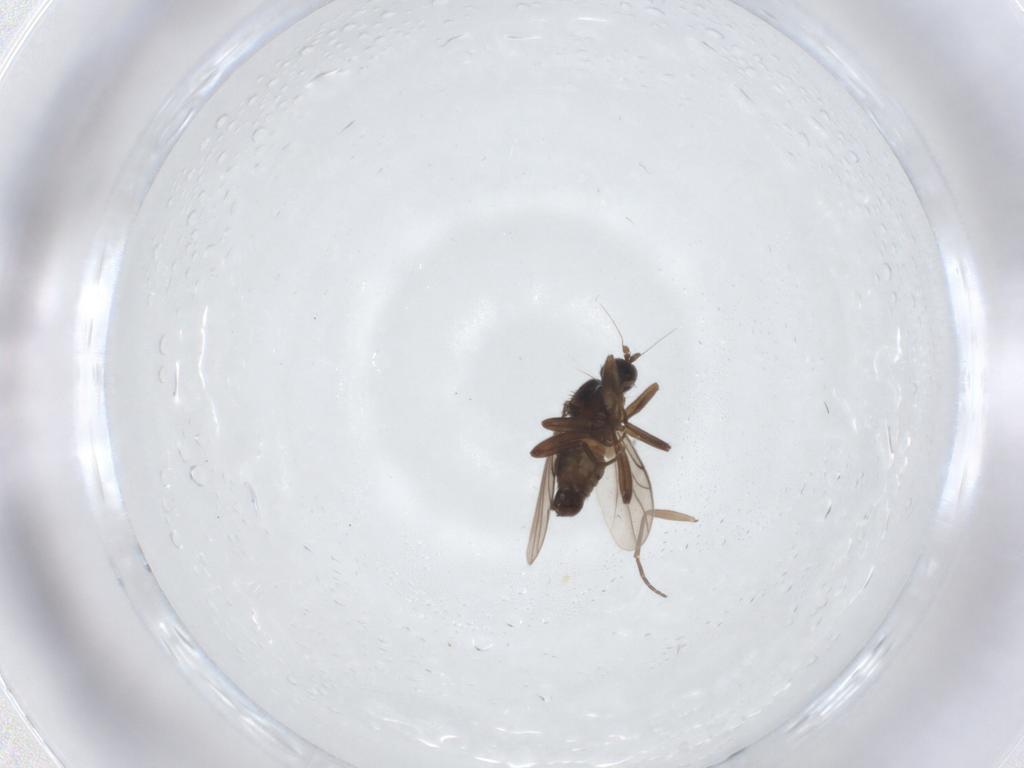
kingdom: Animalia
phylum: Arthropoda
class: Insecta
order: Diptera
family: Hybotidae
